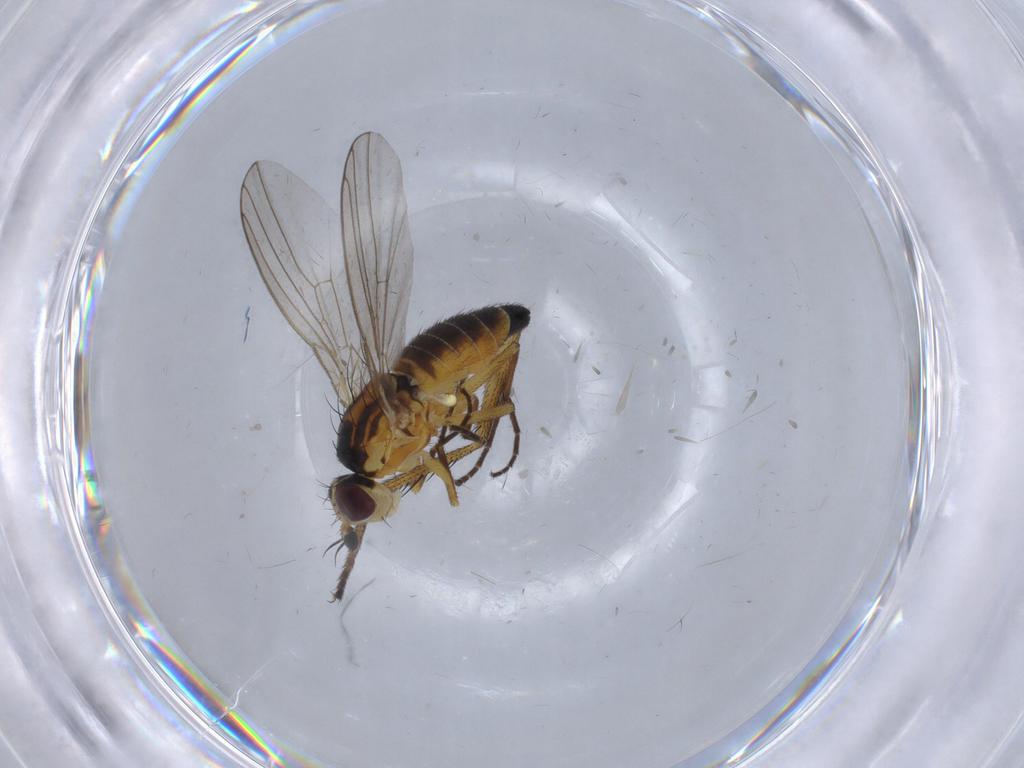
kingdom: Animalia
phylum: Arthropoda
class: Insecta
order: Diptera
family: Dolichopodidae
